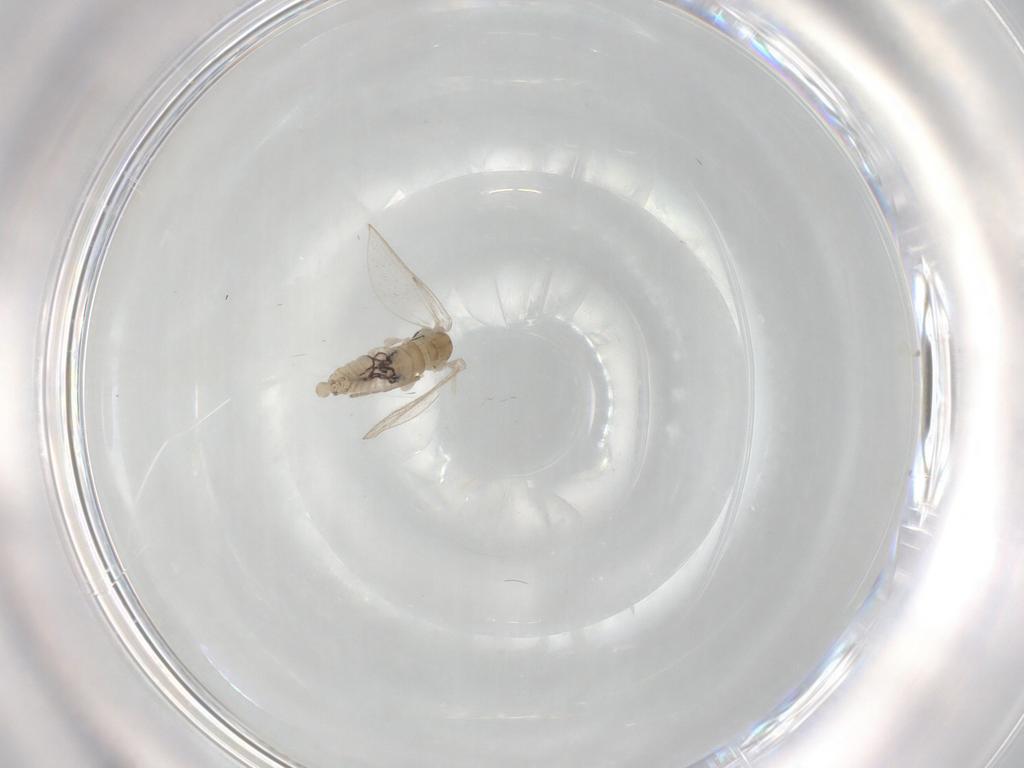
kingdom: Animalia
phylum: Arthropoda
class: Insecta
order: Diptera
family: Psychodidae
